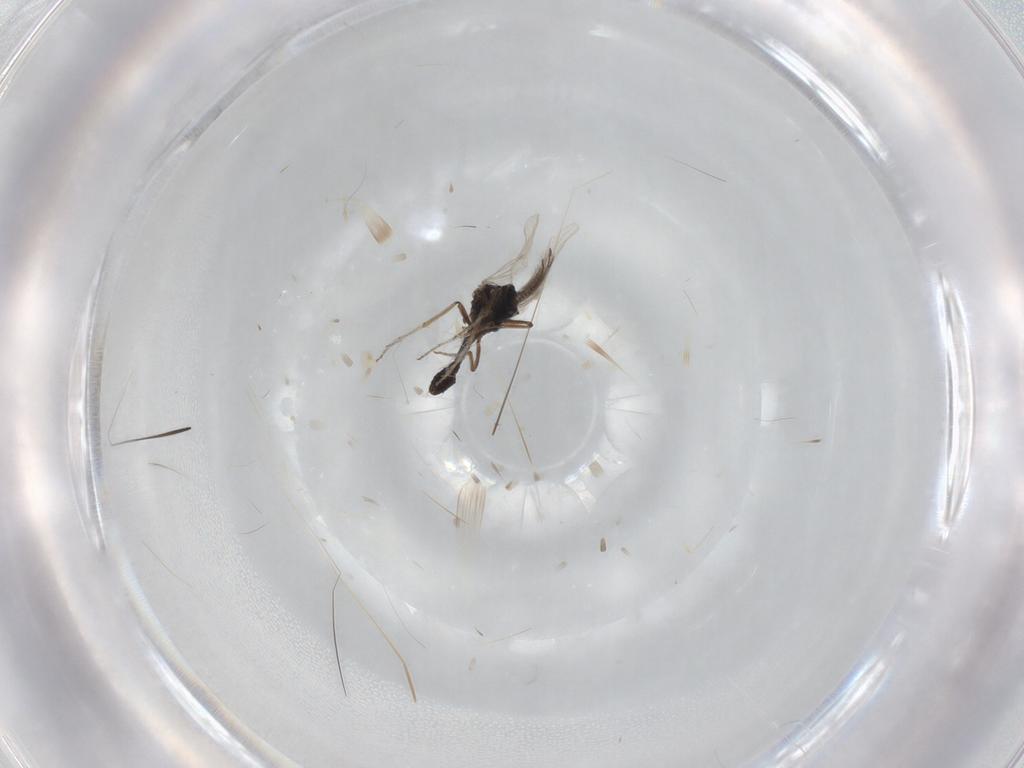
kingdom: Animalia
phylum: Arthropoda
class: Insecta
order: Diptera
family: Ceratopogonidae
